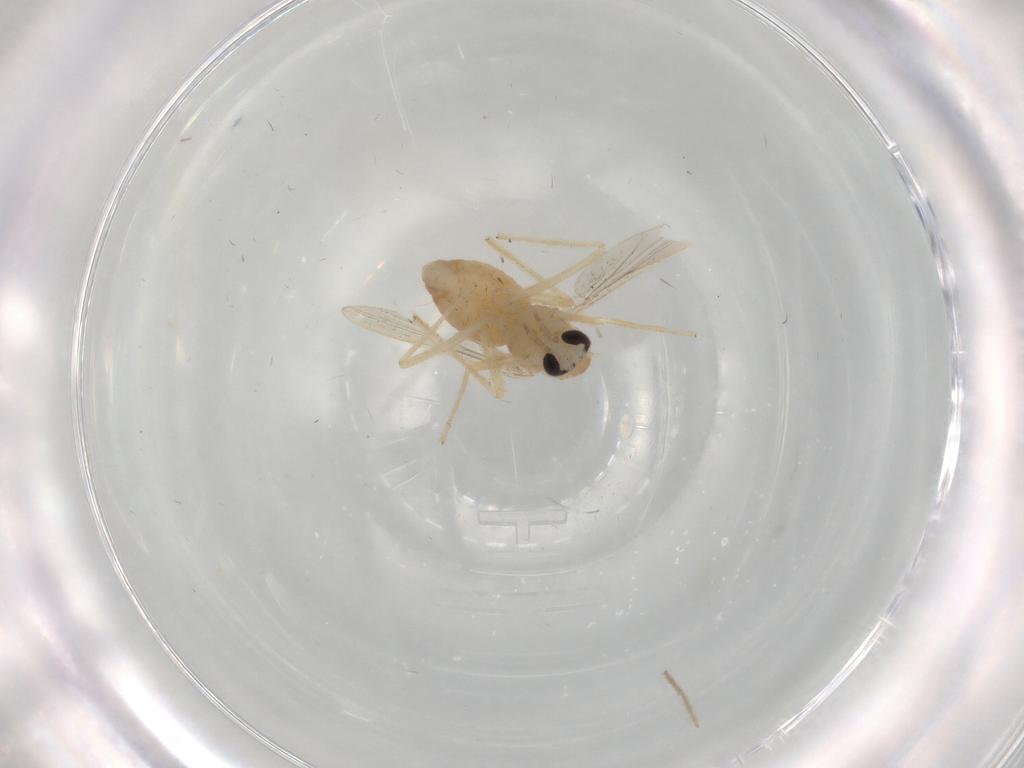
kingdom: Animalia
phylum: Arthropoda
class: Insecta
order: Diptera
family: Chironomidae
